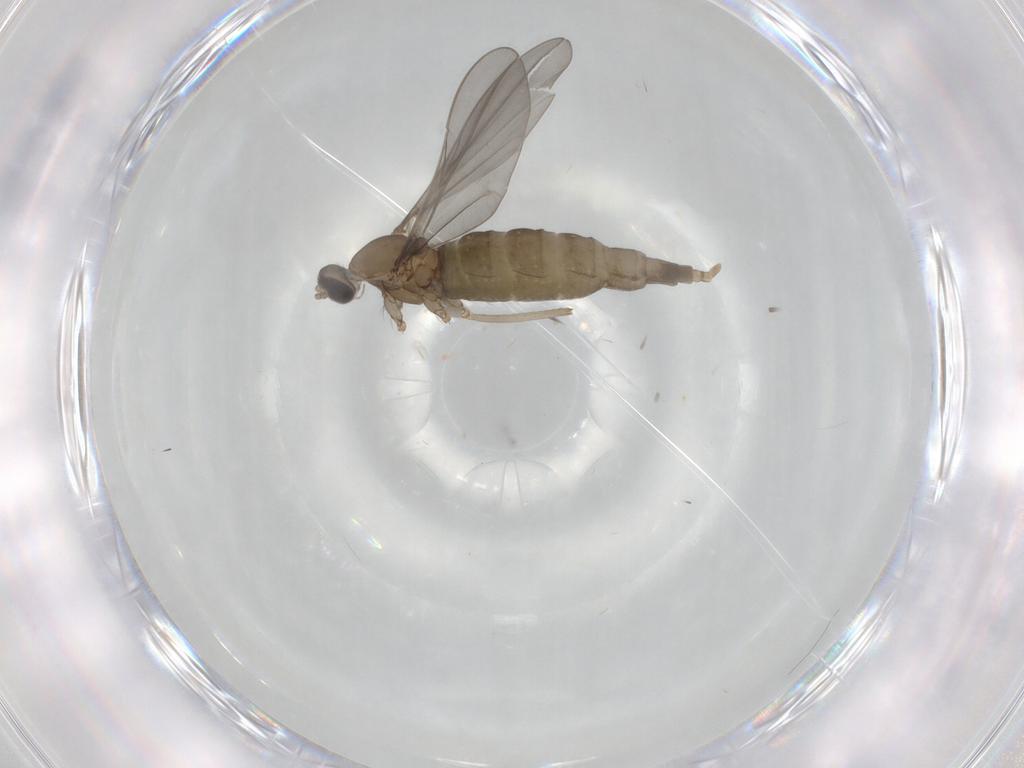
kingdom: Animalia
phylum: Arthropoda
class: Insecta
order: Diptera
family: Cecidomyiidae
